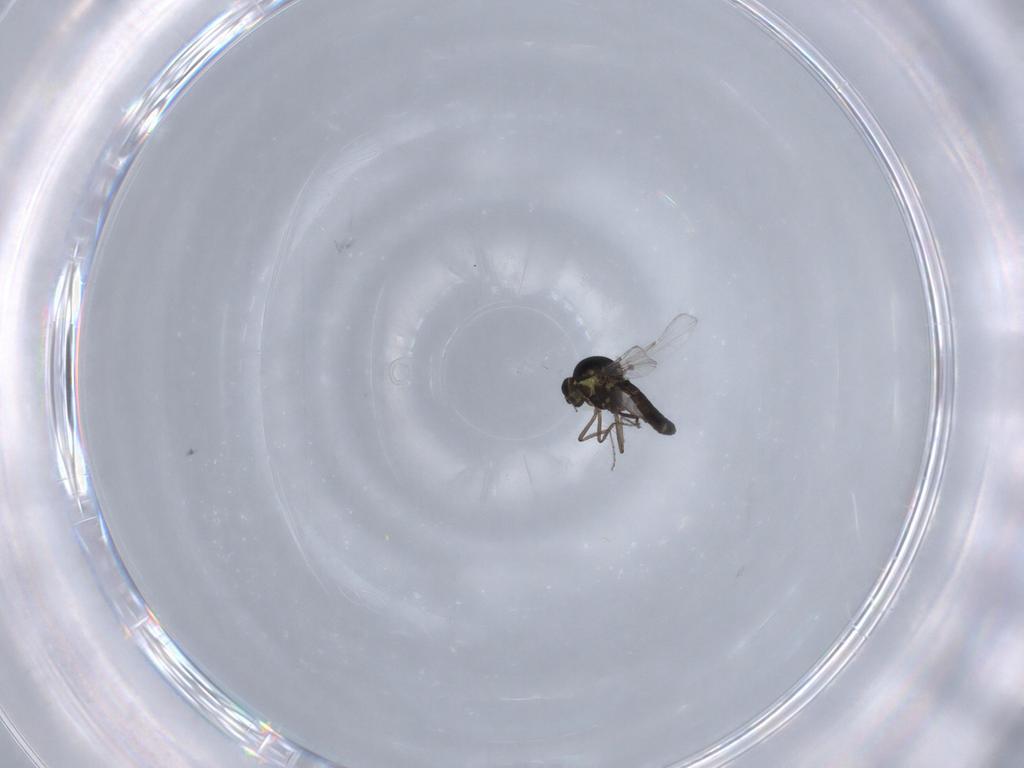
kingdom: Animalia
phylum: Arthropoda
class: Insecta
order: Diptera
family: Ceratopogonidae
